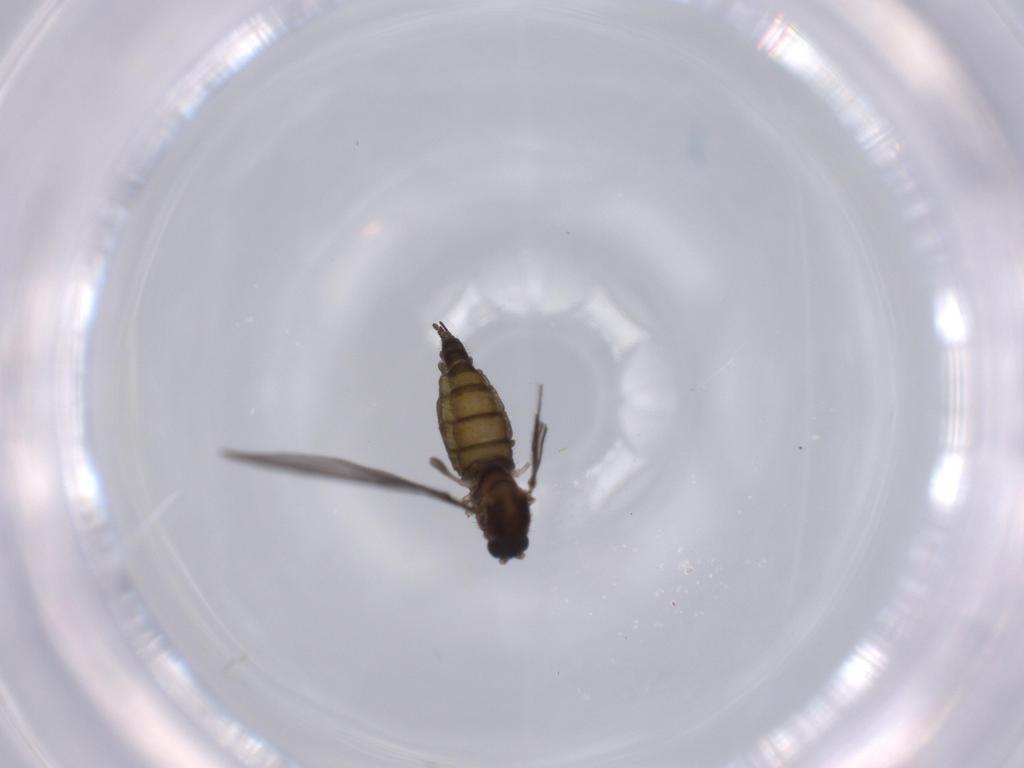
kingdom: Animalia
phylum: Arthropoda
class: Insecta
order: Diptera
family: Sciaridae
